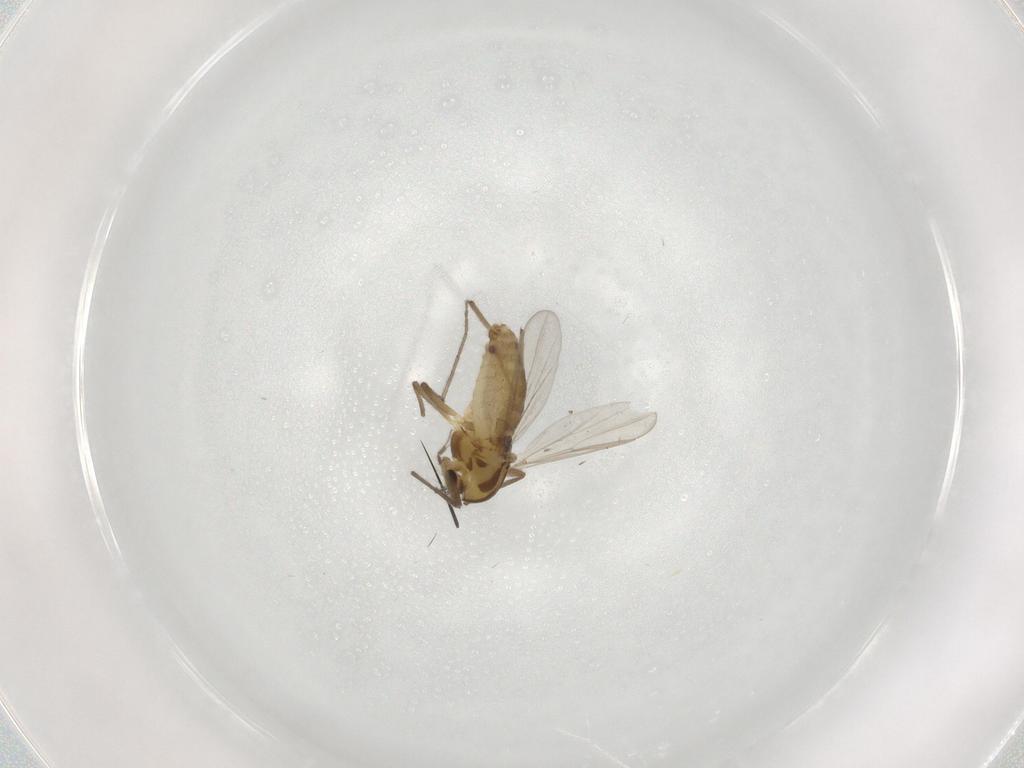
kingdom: Animalia
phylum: Arthropoda
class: Insecta
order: Diptera
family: Chironomidae
